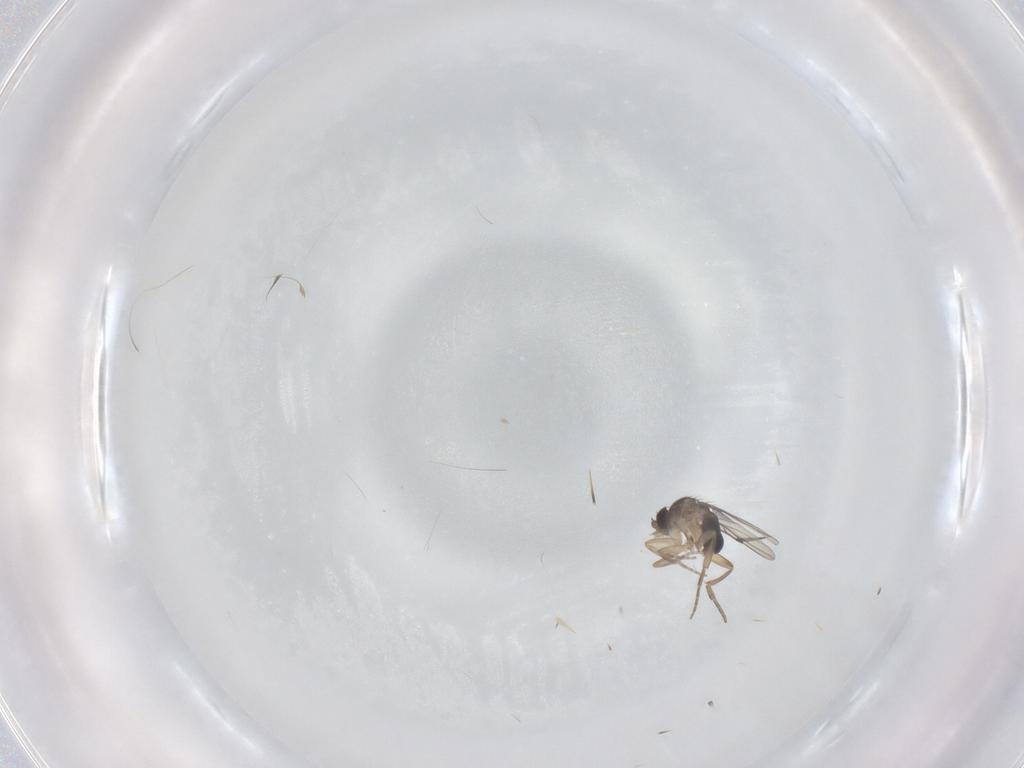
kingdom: Animalia
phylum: Arthropoda
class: Insecta
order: Diptera
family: Phoridae
